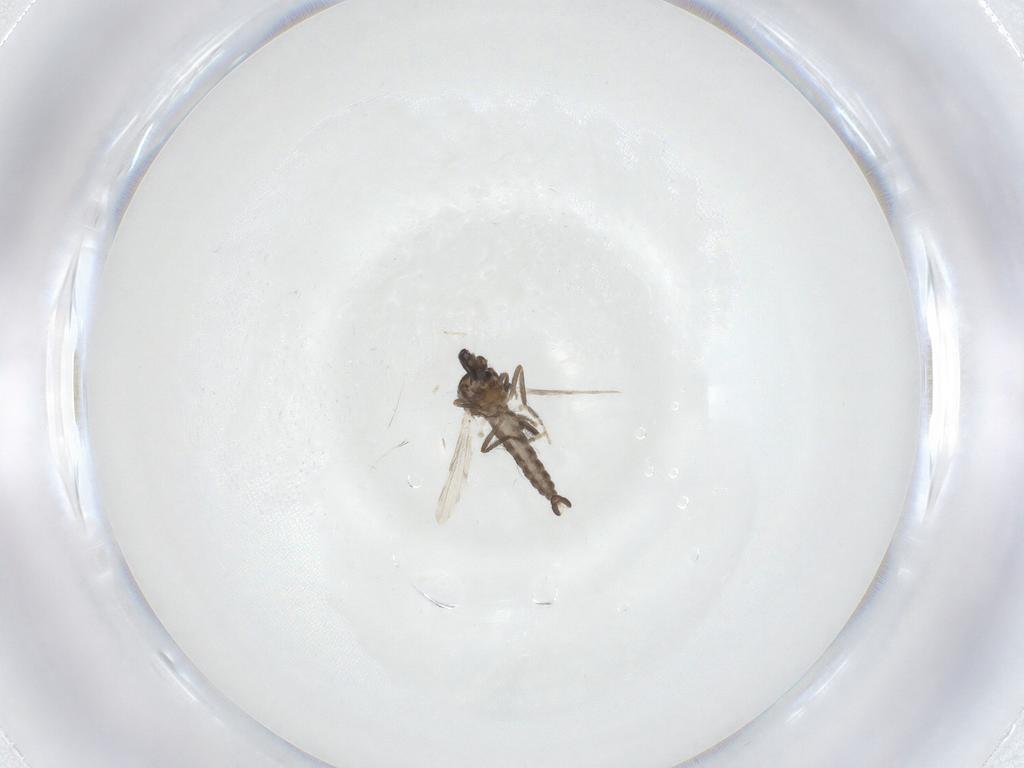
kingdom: Animalia
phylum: Arthropoda
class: Insecta
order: Diptera
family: Ceratopogonidae
